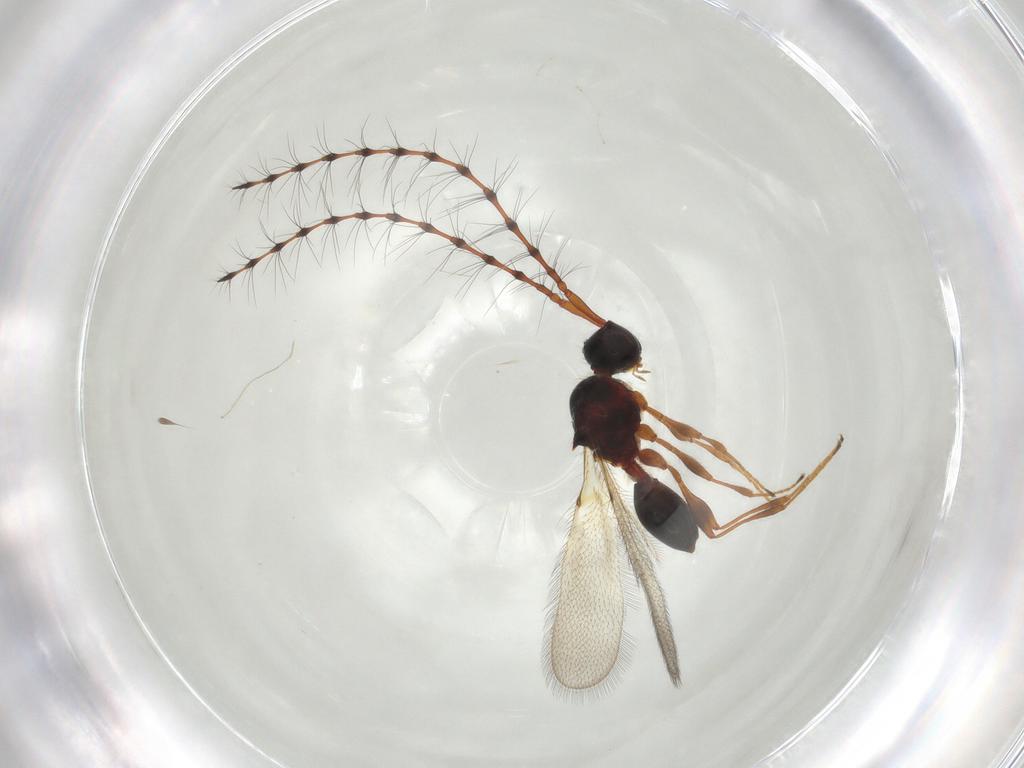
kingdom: Animalia
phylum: Arthropoda
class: Insecta
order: Hymenoptera
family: Diapriidae
